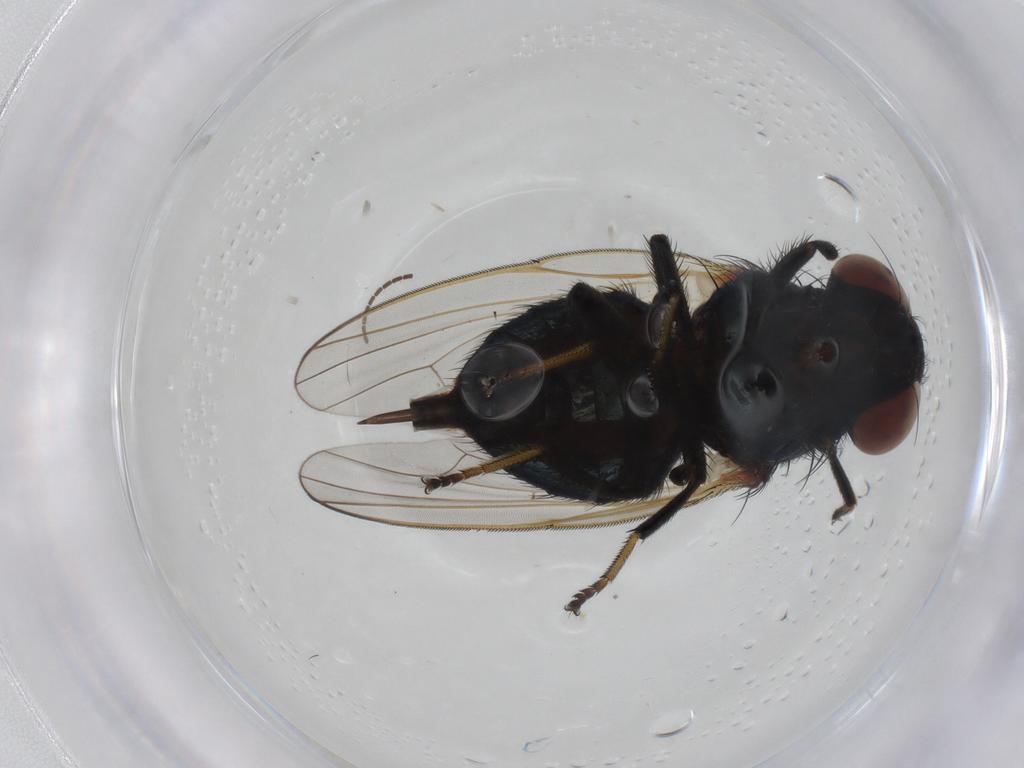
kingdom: Animalia
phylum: Arthropoda
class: Insecta
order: Diptera
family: Lonchaeidae
